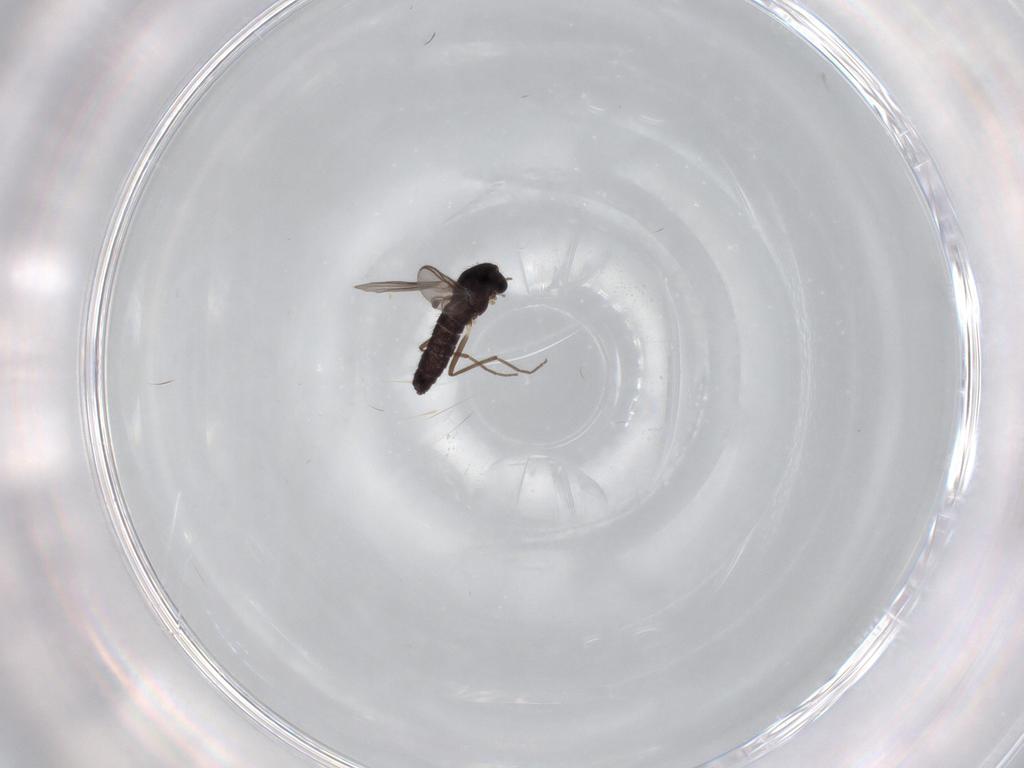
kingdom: Animalia
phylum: Arthropoda
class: Insecta
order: Diptera
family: Chironomidae
